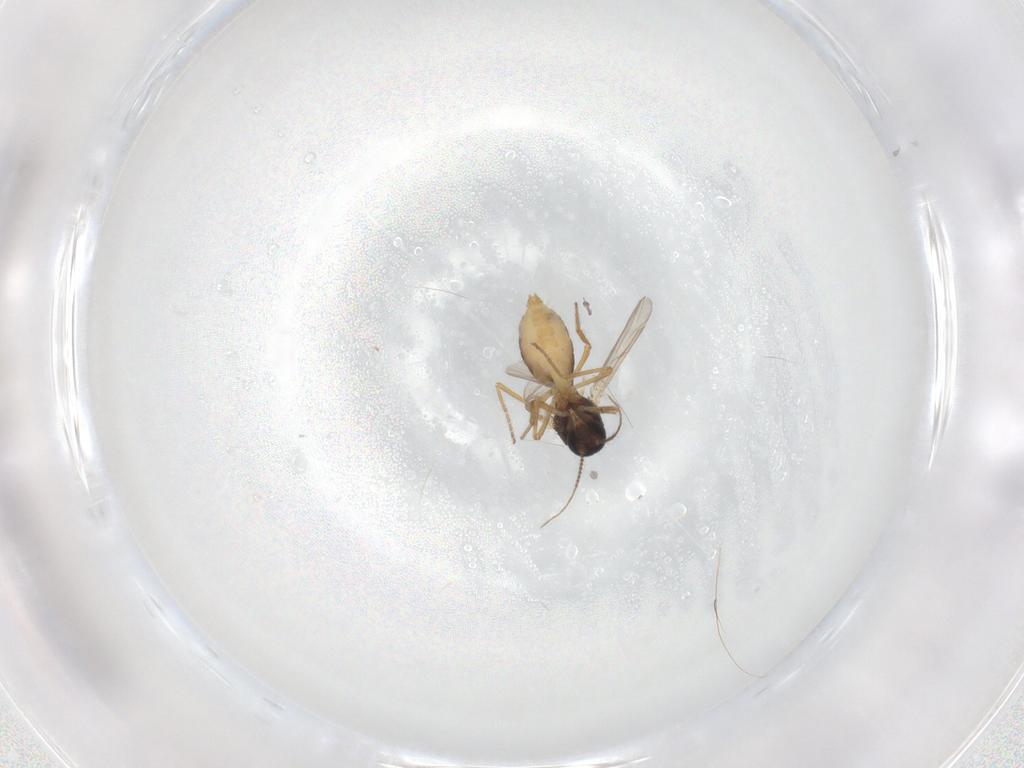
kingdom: Animalia
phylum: Arthropoda
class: Insecta
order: Diptera
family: Ceratopogonidae
